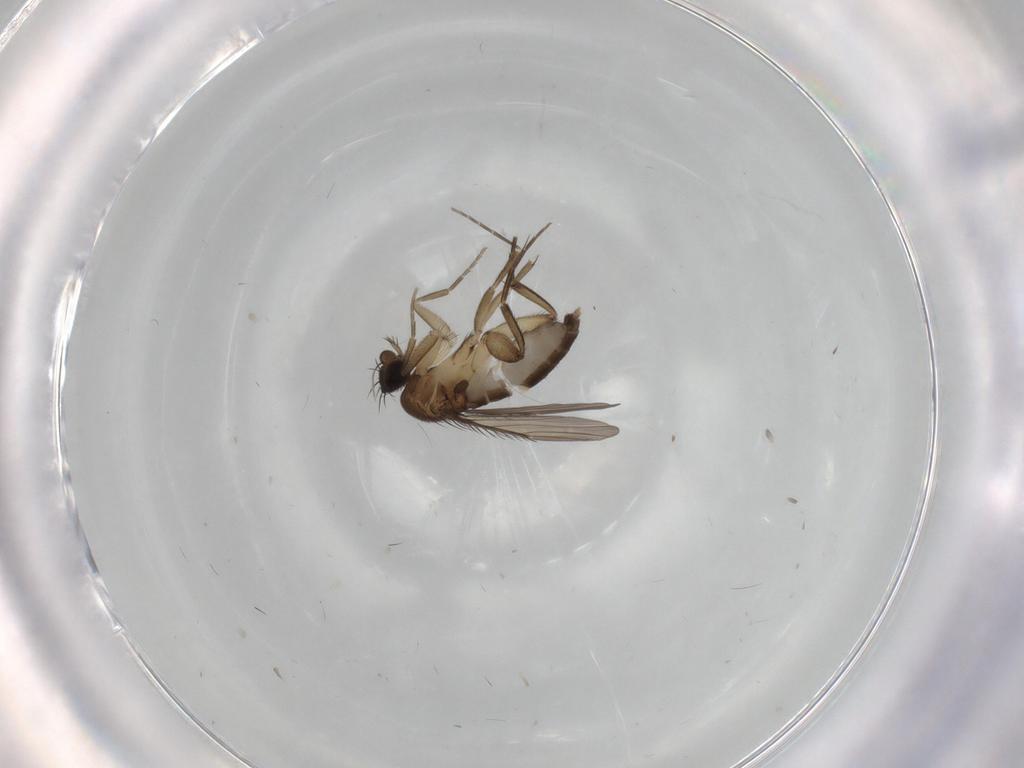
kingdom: Animalia
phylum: Arthropoda
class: Insecta
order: Diptera
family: Phoridae
